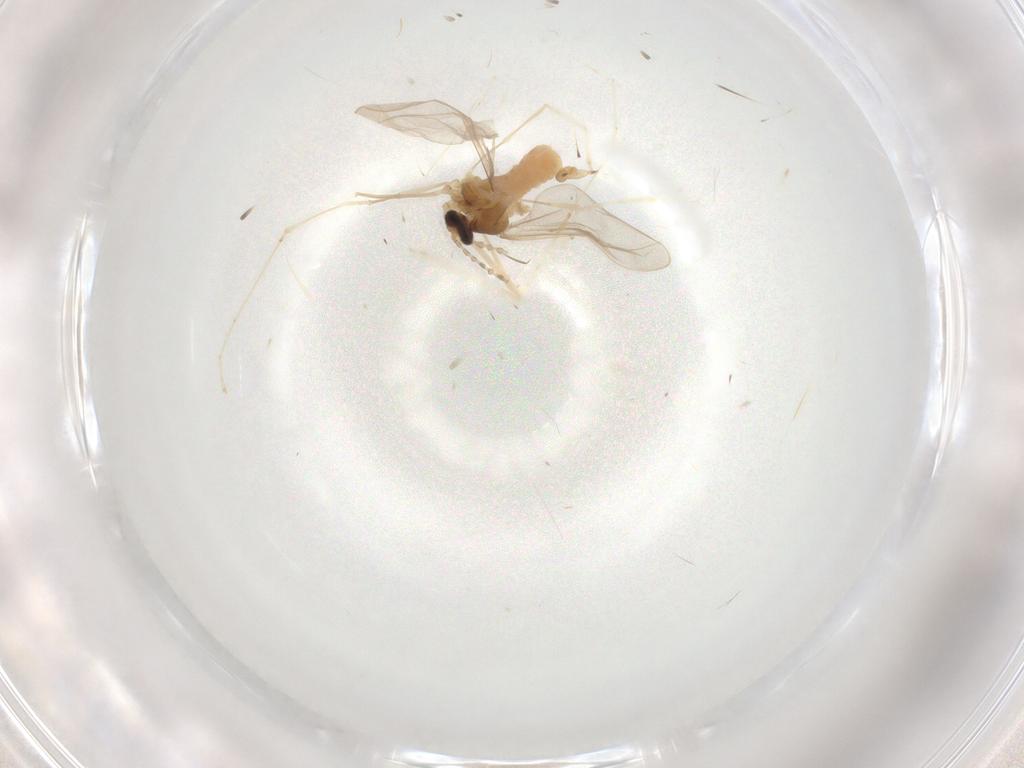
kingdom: Animalia
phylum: Arthropoda
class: Insecta
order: Diptera
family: Cecidomyiidae
